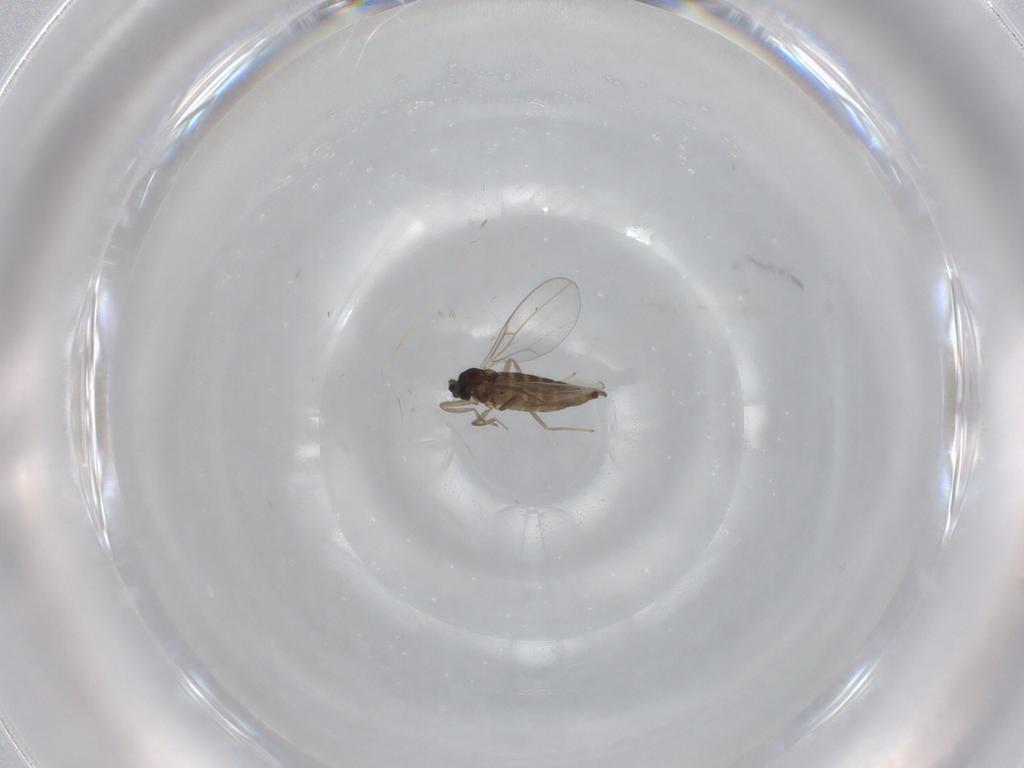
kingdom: Animalia
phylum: Arthropoda
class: Insecta
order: Diptera
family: Cecidomyiidae
